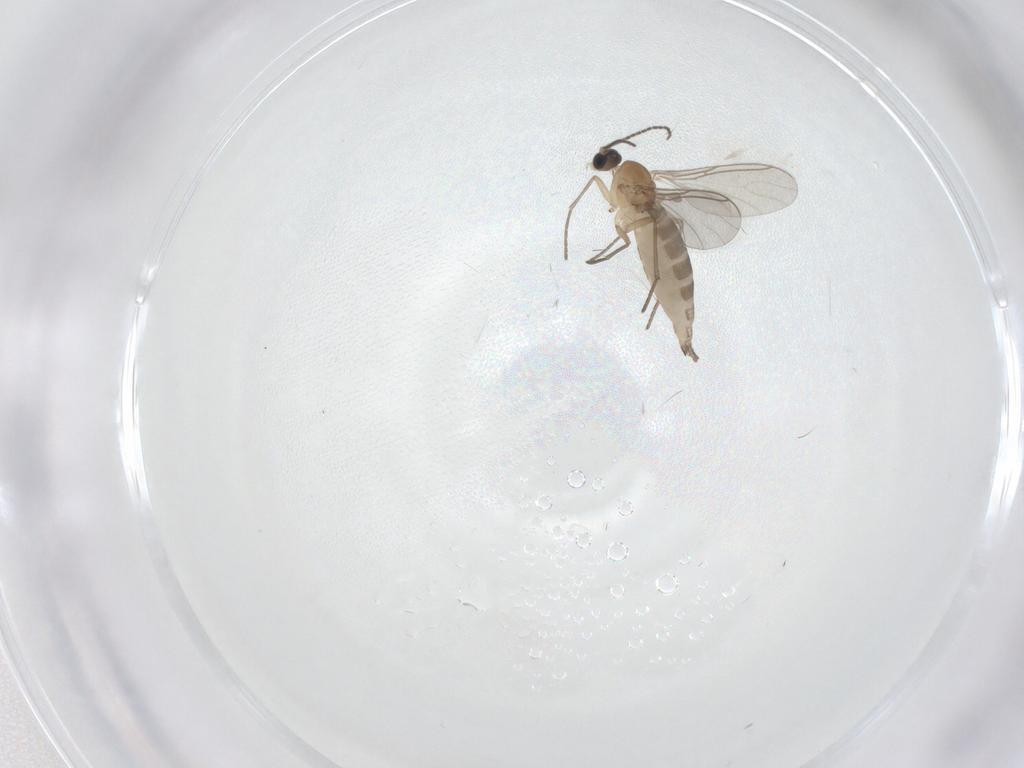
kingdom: Animalia
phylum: Arthropoda
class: Insecta
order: Diptera
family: Sciaridae
